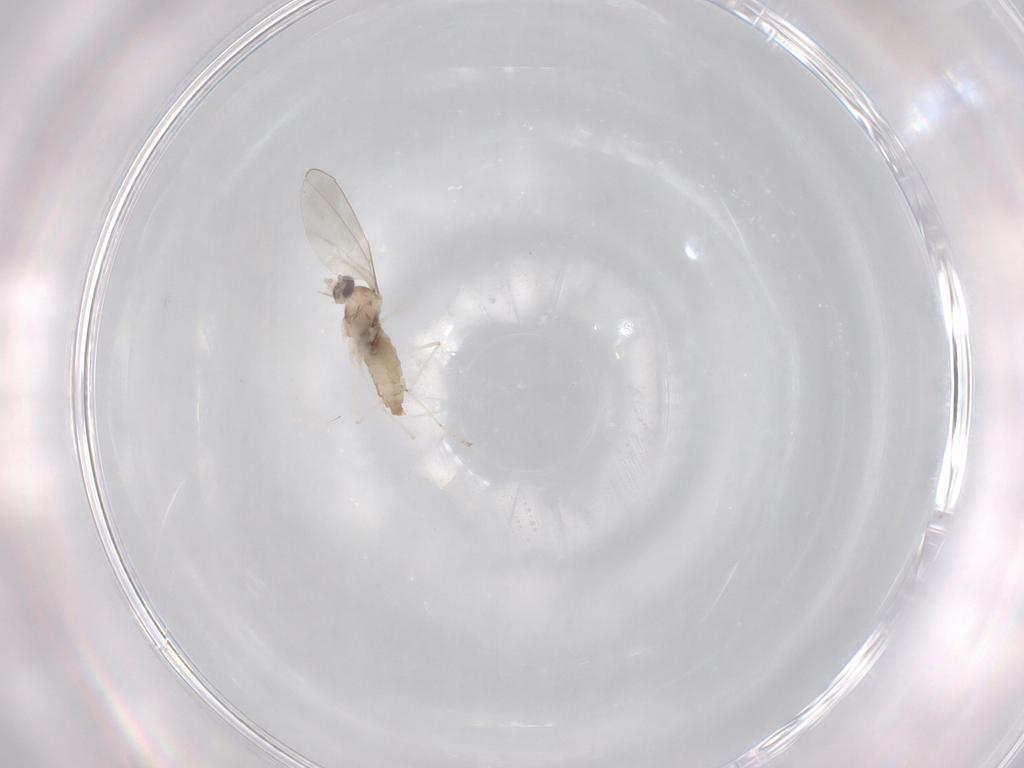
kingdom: Animalia
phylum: Arthropoda
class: Insecta
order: Diptera
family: Cecidomyiidae
